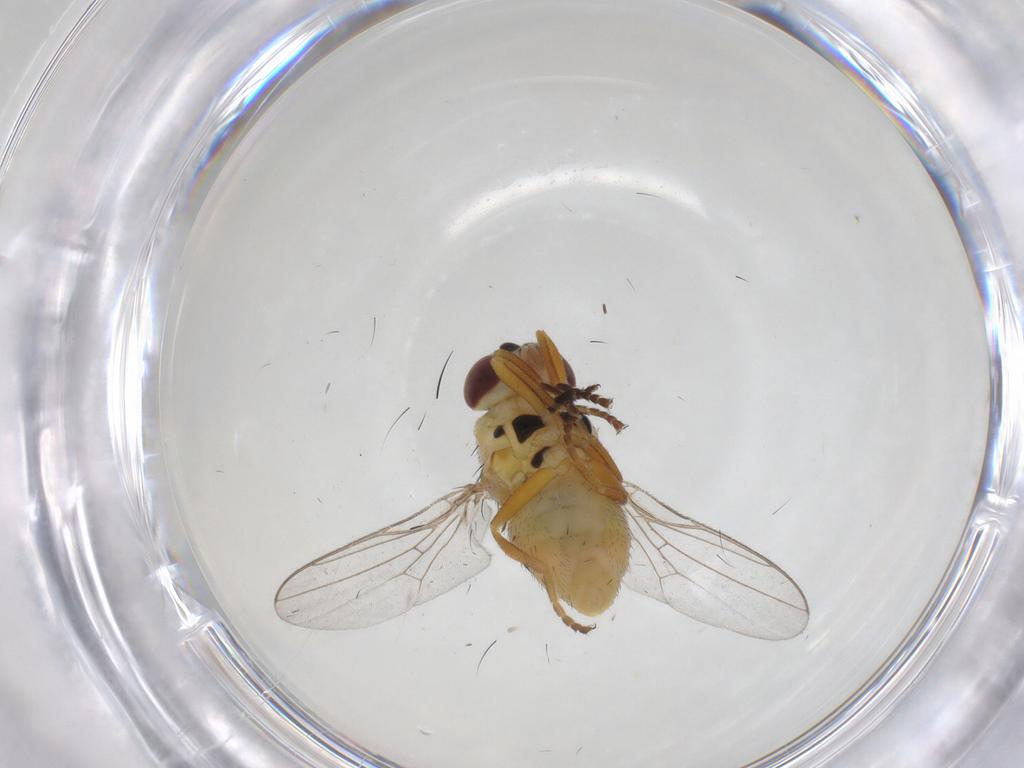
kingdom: Animalia
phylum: Arthropoda
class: Insecta
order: Diptera
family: Chloropidae
